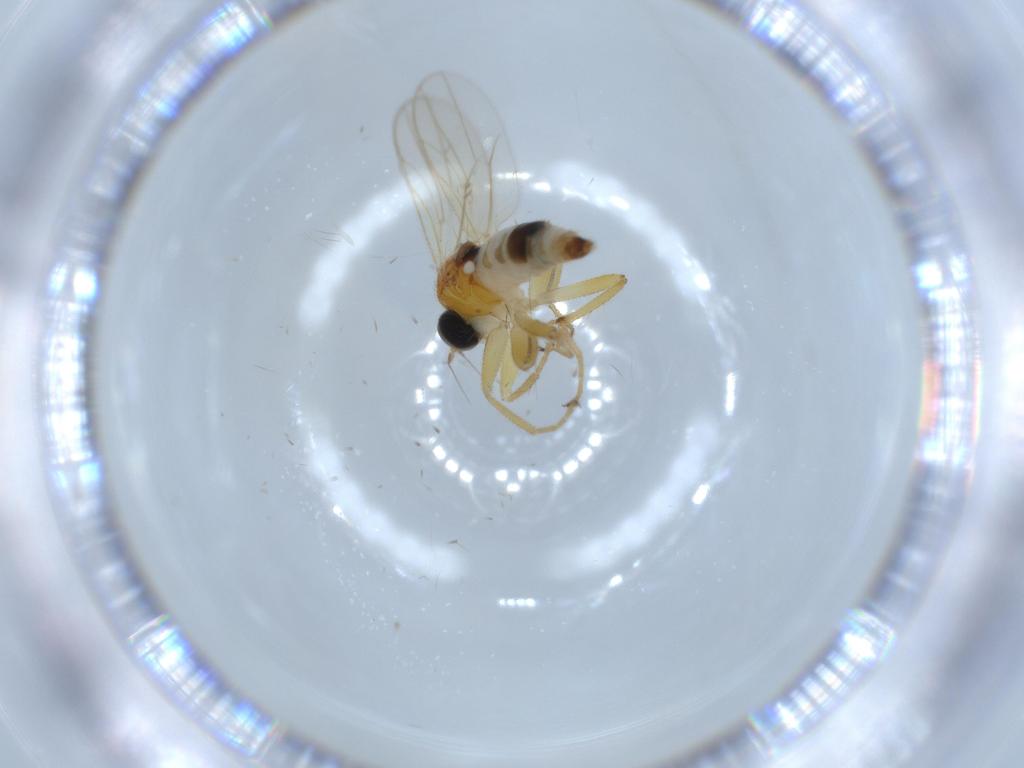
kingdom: Animalia
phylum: Arthropoda
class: Insecta
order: Diptera
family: Hybotidae
